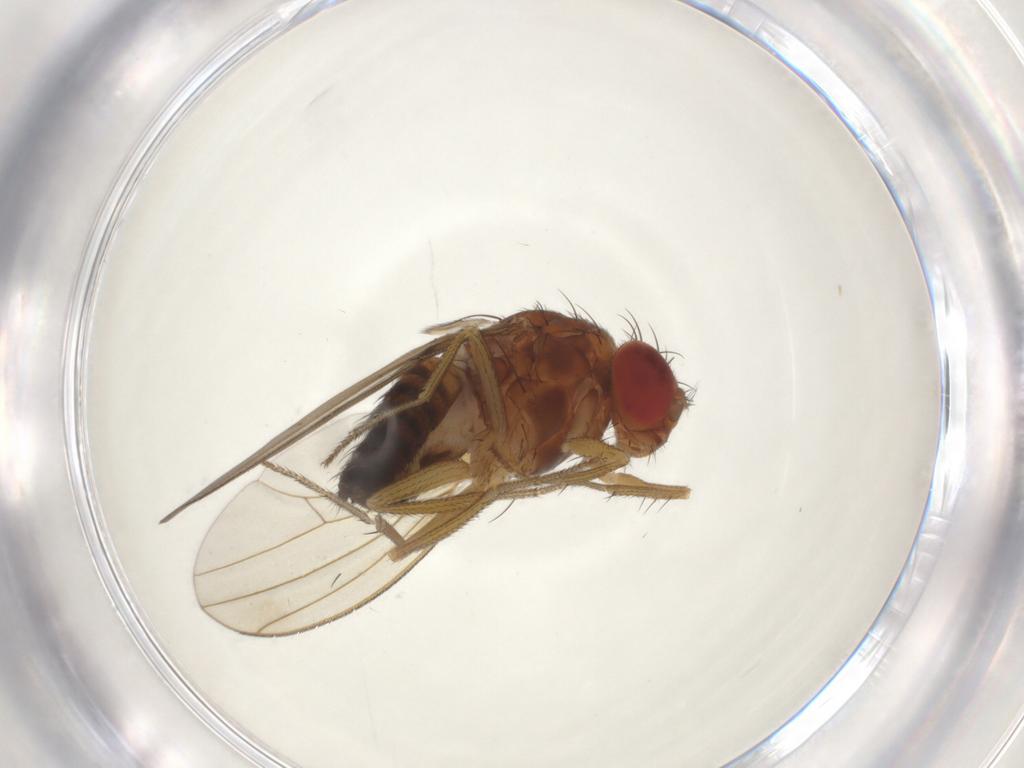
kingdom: Animalia
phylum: Arthropoda
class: Insecta
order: Diptera
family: Drosophilidae
